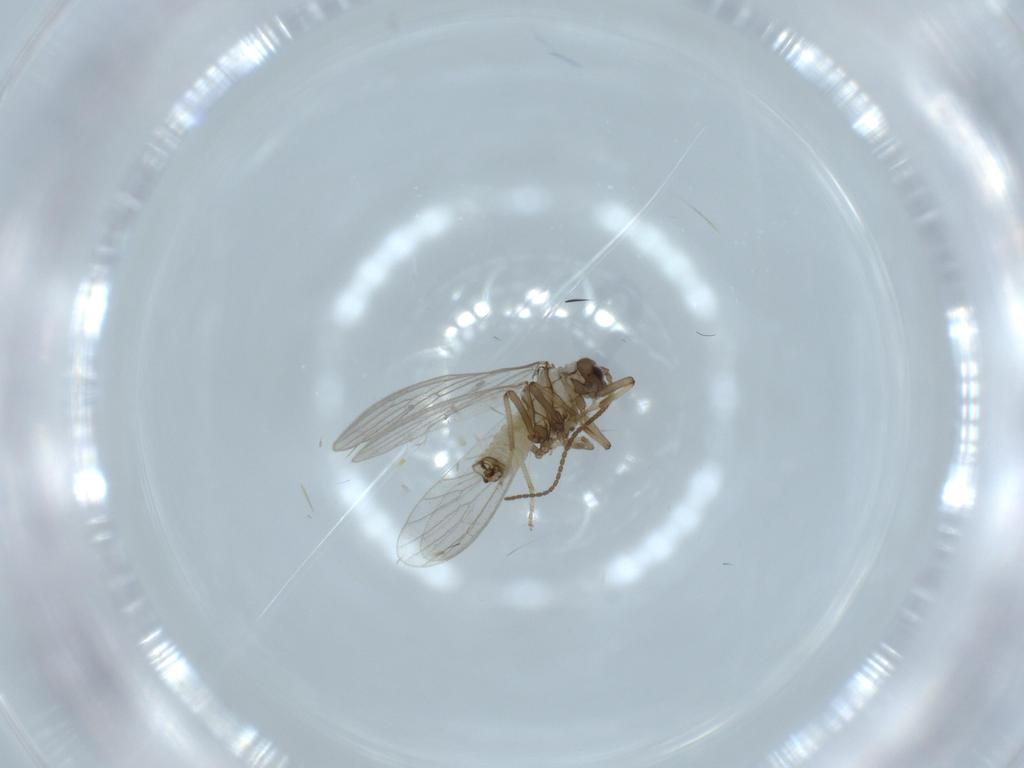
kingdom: Animalia
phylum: Arthropoda
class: Insecta
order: Neuroptera
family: Coniopterygidae
